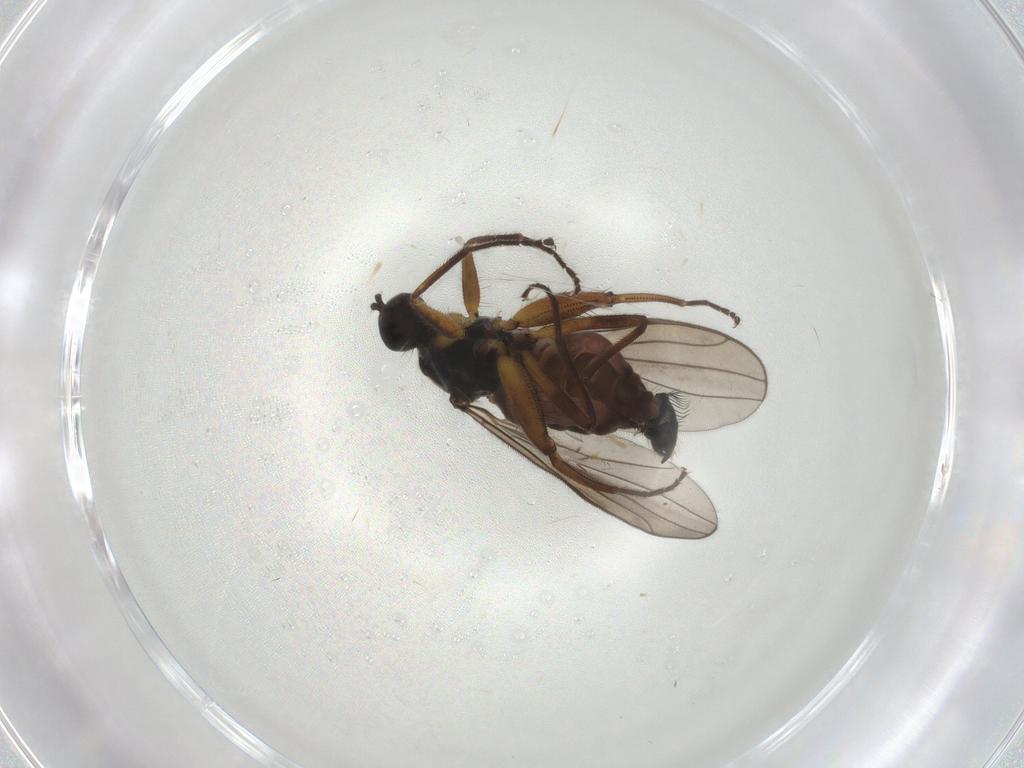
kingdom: Animalia
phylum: Arthropoda
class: Insecta
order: Diptera
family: Hybotidae
